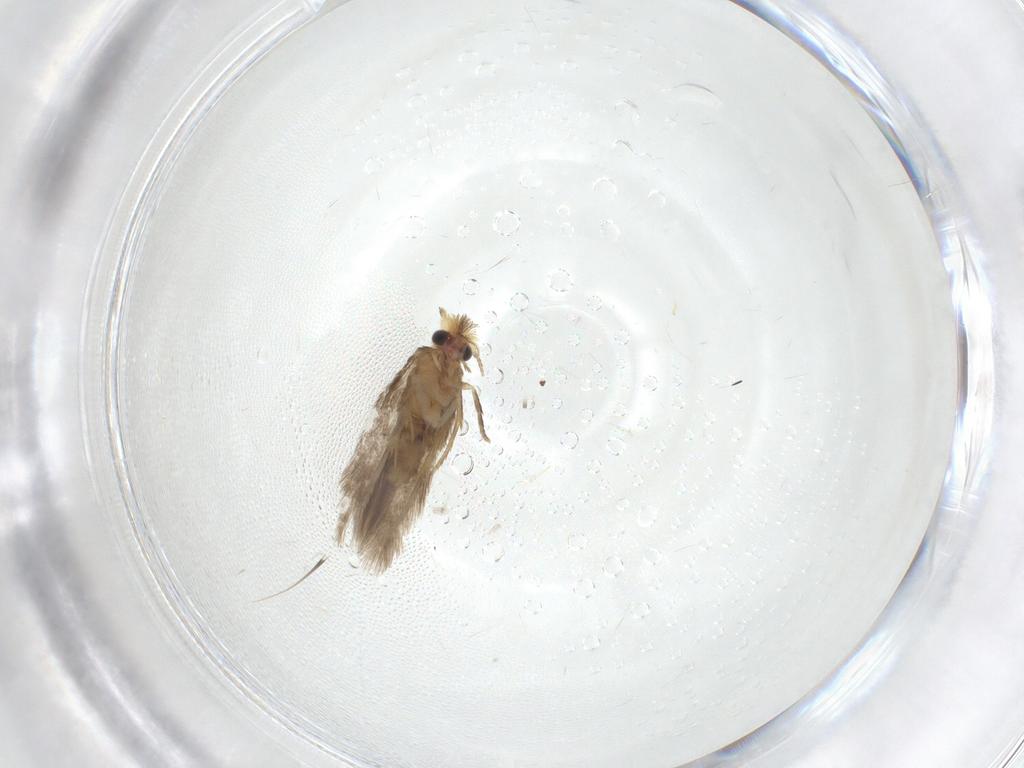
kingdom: Animalia
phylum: Arthropoda
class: Insecta
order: Lepidoptera
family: Nepticulidae
